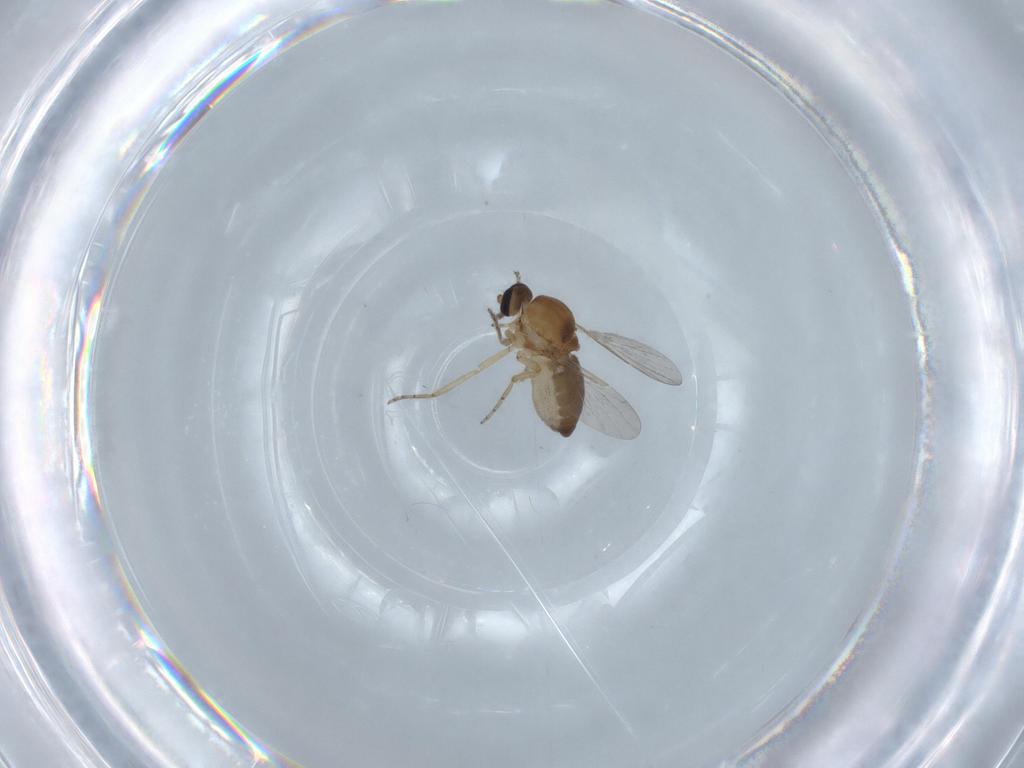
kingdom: Animalia
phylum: Arthropoda
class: Insecta
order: Diptera
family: Ceratopogonidae
